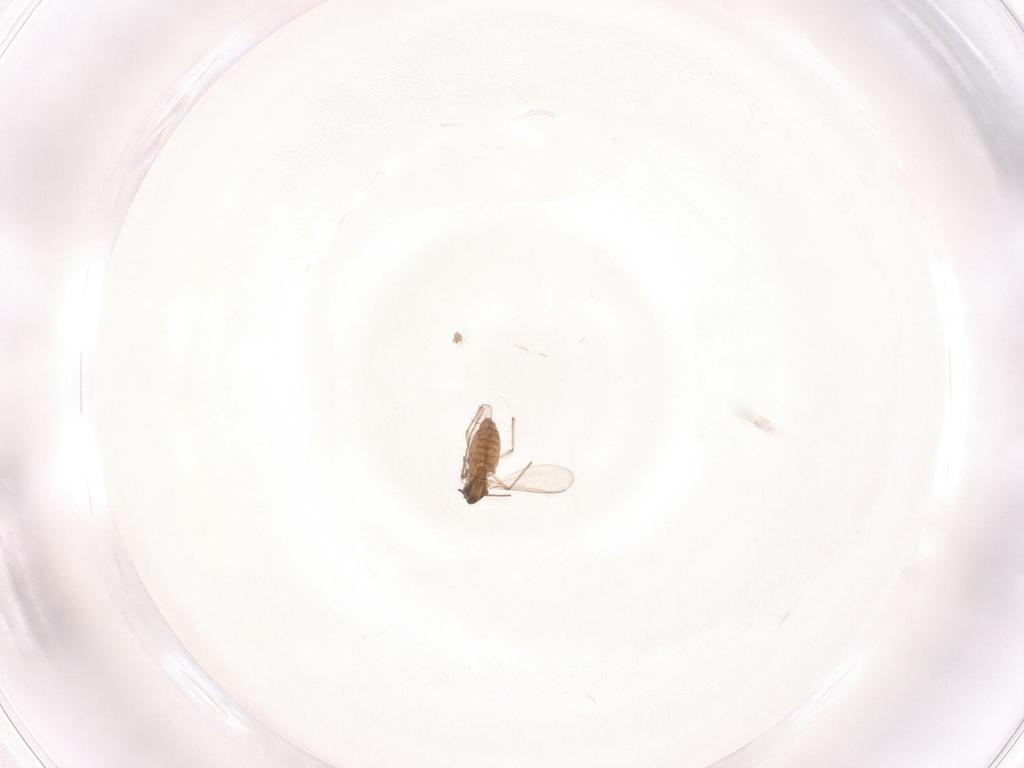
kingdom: Animalia
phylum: Arthropoda
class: Insecta
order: Diptera
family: Chironomidae
